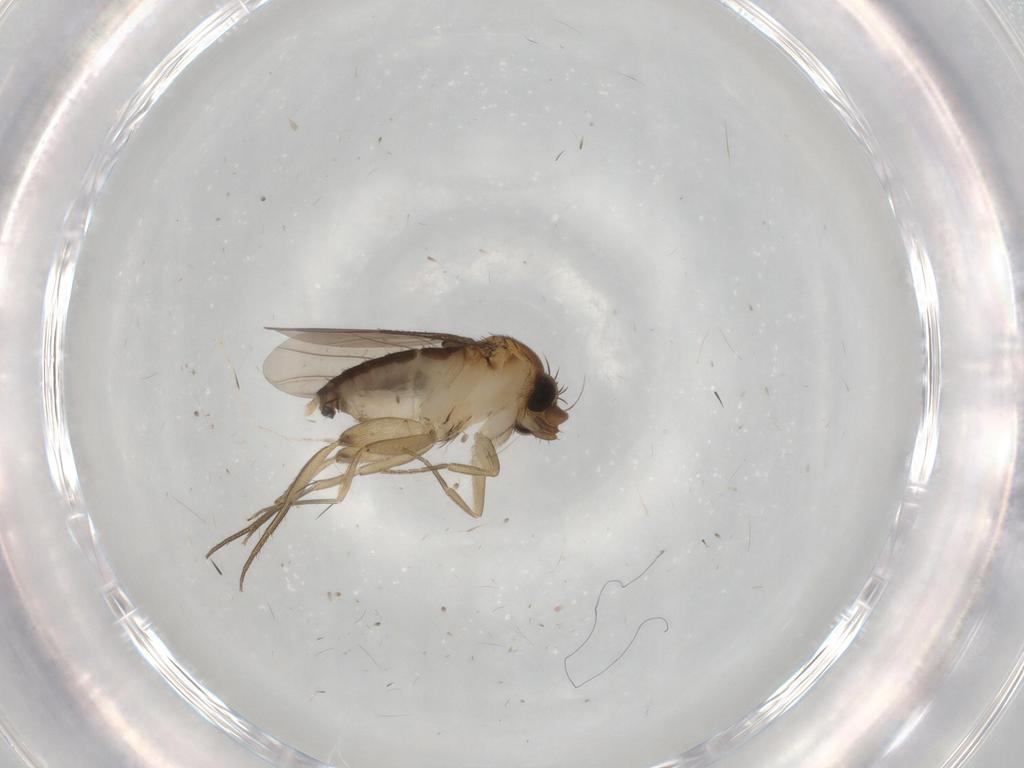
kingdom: Animalia
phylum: Arthropoda
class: Insecta
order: Diptera
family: Phoridae
